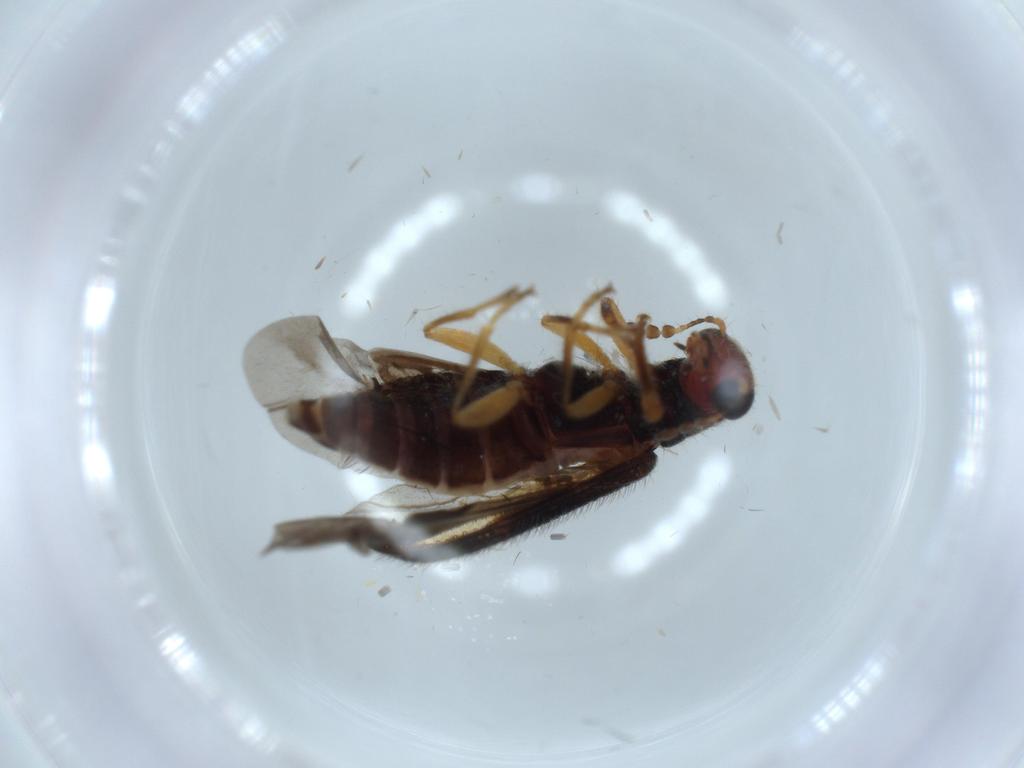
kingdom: Animalia
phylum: Arthropoda
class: Insecta
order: Coleoptera
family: Cleridae
